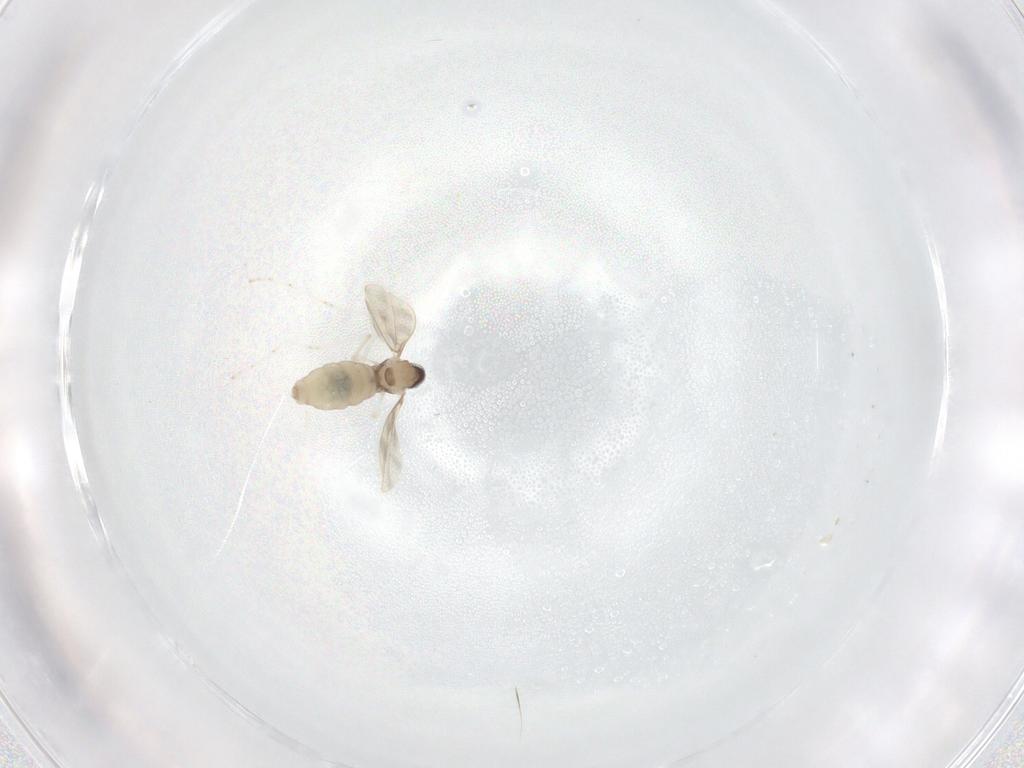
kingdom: Animalia
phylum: Arthropoda
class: Insecta
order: Diptera
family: Cecidomyiidae
